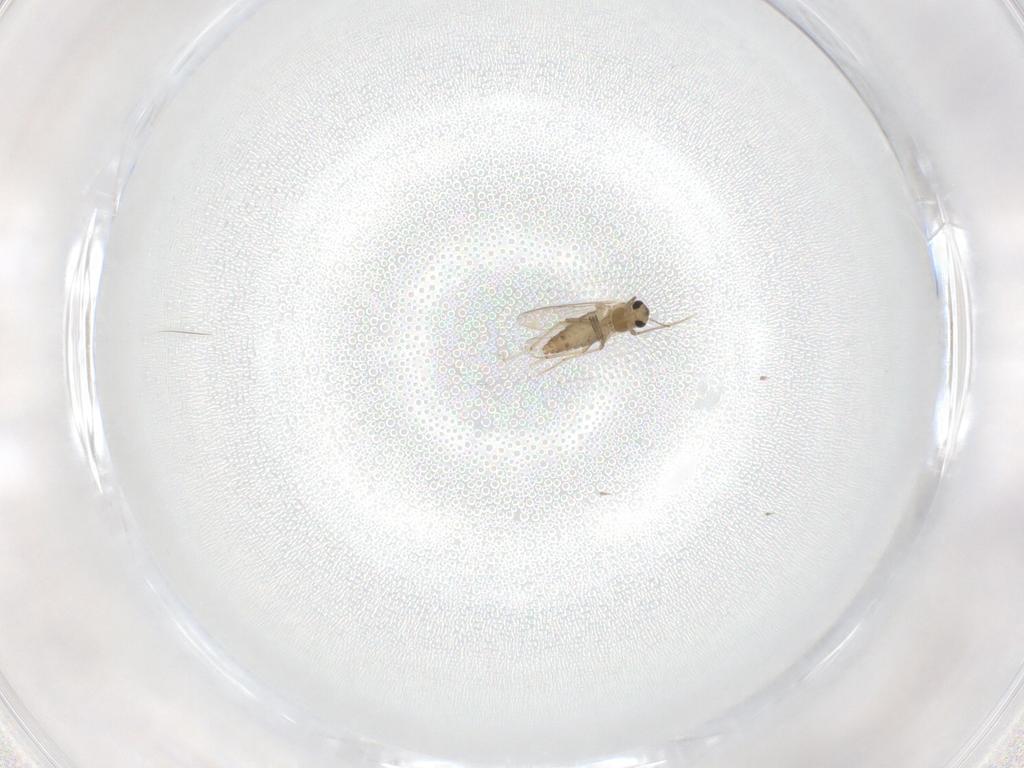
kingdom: Animalia
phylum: Arthropoda
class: Insecta
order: Diptera
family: Chironomidae
